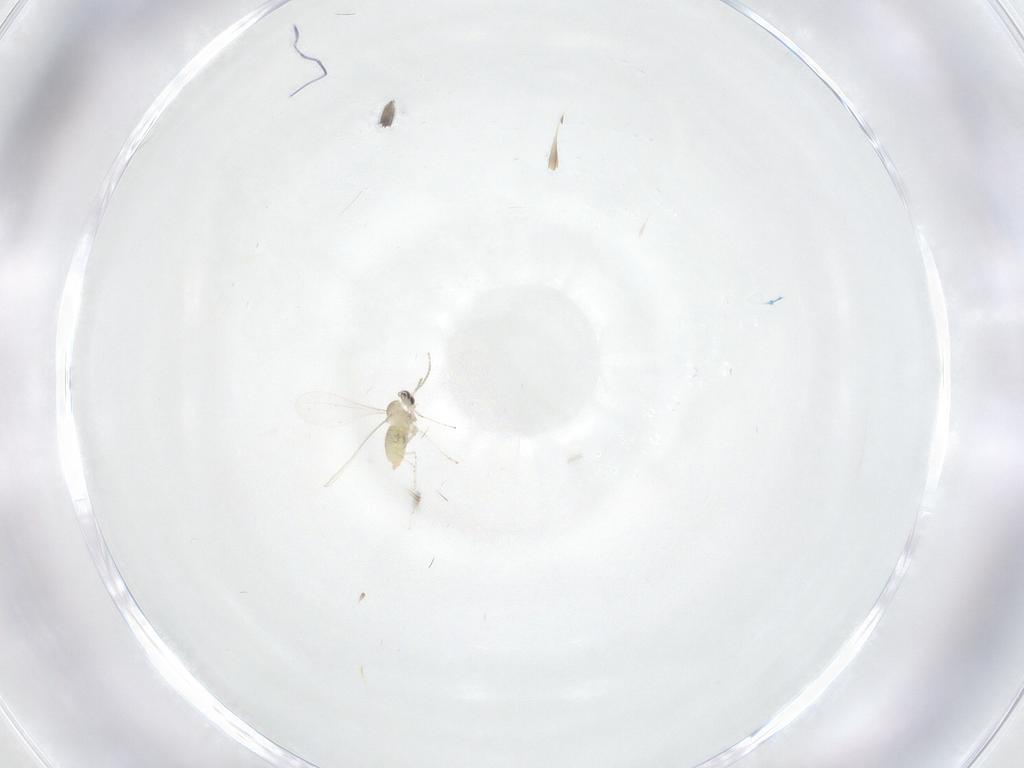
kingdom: Animalia
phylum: Arthropoda
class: Insecta
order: Diptera
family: Cecidomyiidae
